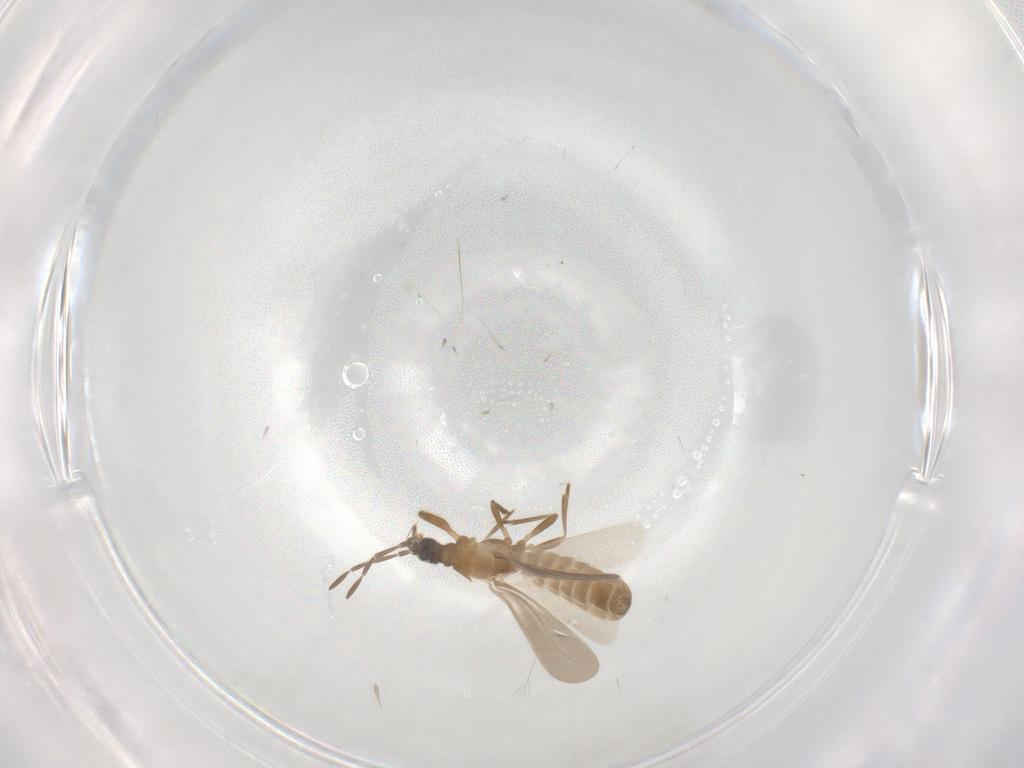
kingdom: Animalia
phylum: Arthropoda
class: Insecta
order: Hemiptera
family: Enicocephalidae
